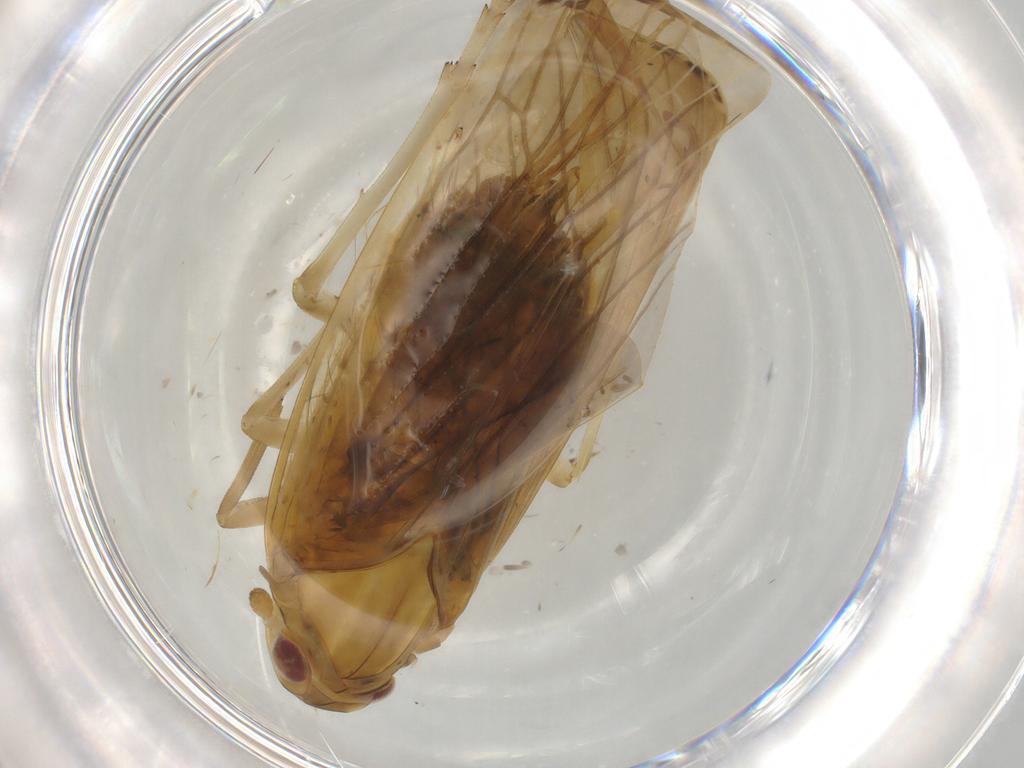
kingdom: Animalia
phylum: Arthropoda
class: Insecta
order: Hemiptera
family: Achilidae
